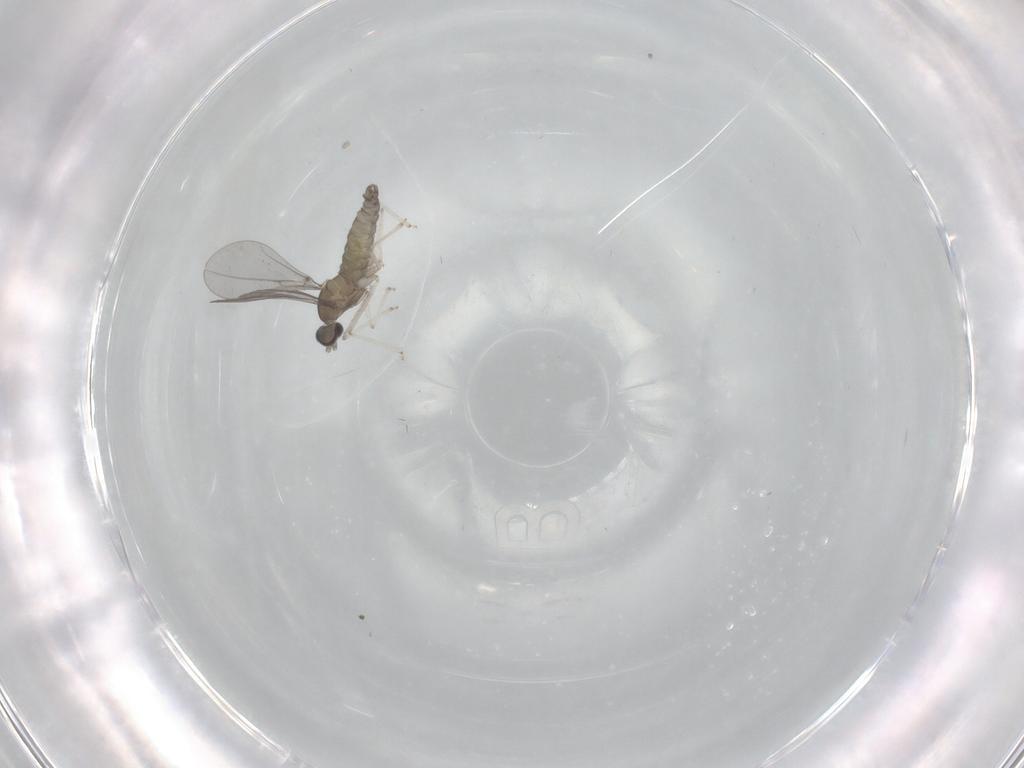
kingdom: Animalia
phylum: Arthropoda
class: Insecta
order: Diptera
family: Phoridae
